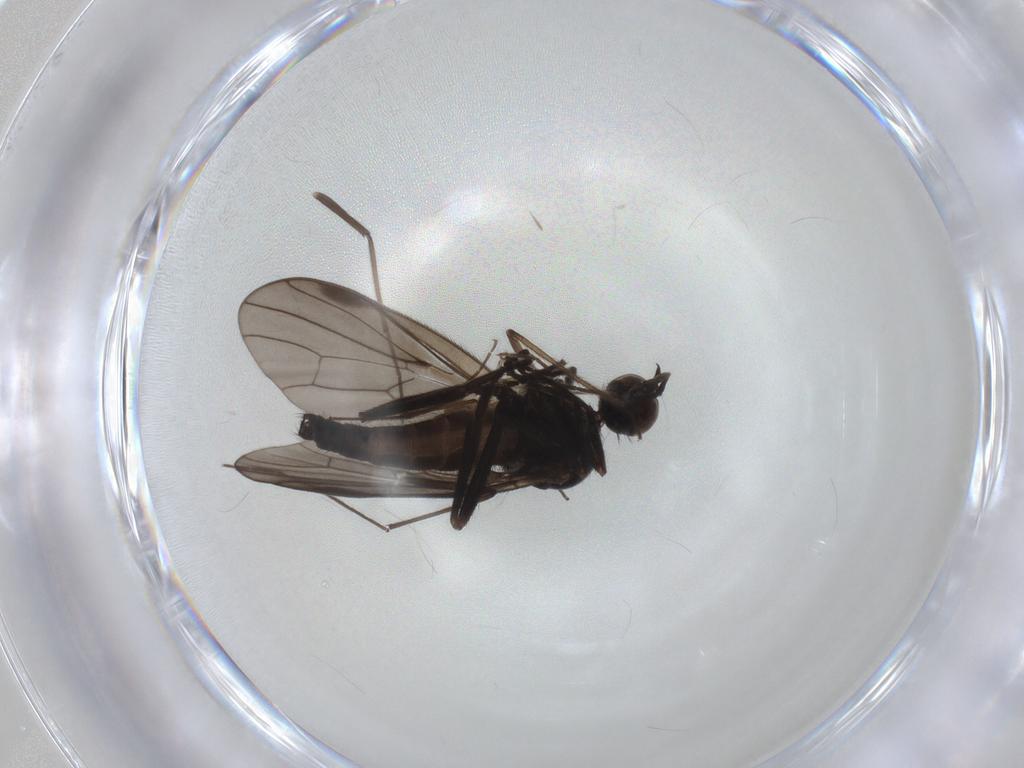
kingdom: Animalia
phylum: Arthropoda
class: Insecta
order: Diptera
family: Hybotidae
